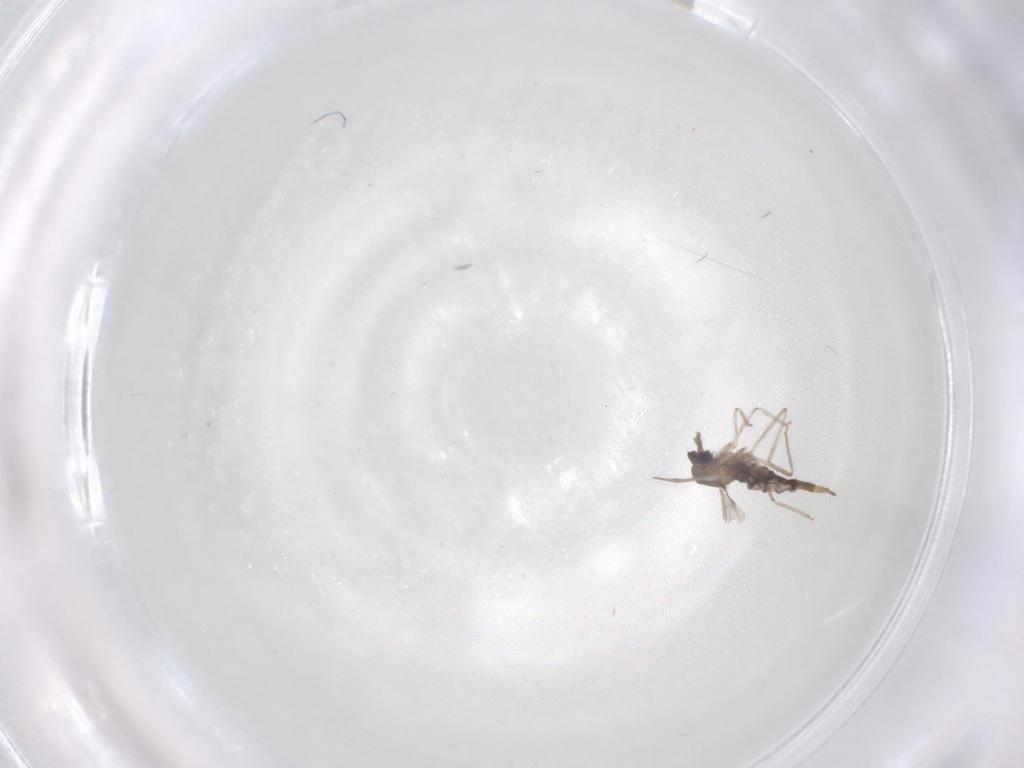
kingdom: Animalia
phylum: Arthropoda
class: Insecta
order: Diptera
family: Cecidomyiidae
